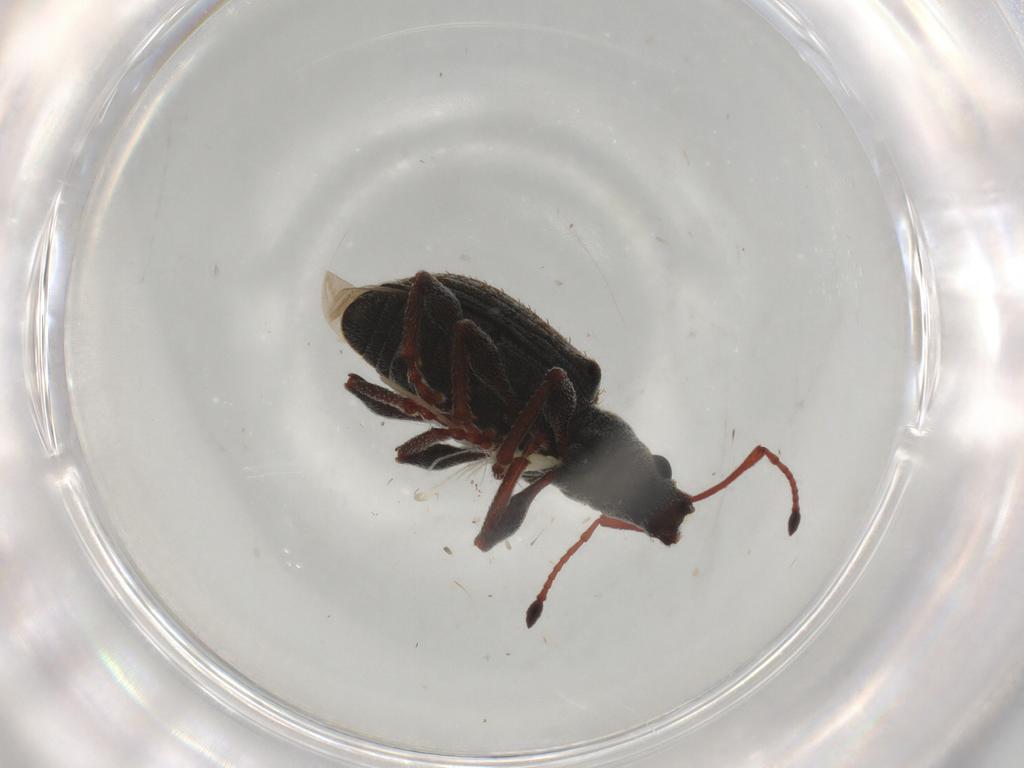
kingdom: Animalia
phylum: Arthropoda
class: Insecta
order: Coleoptera
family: Curculionidae
